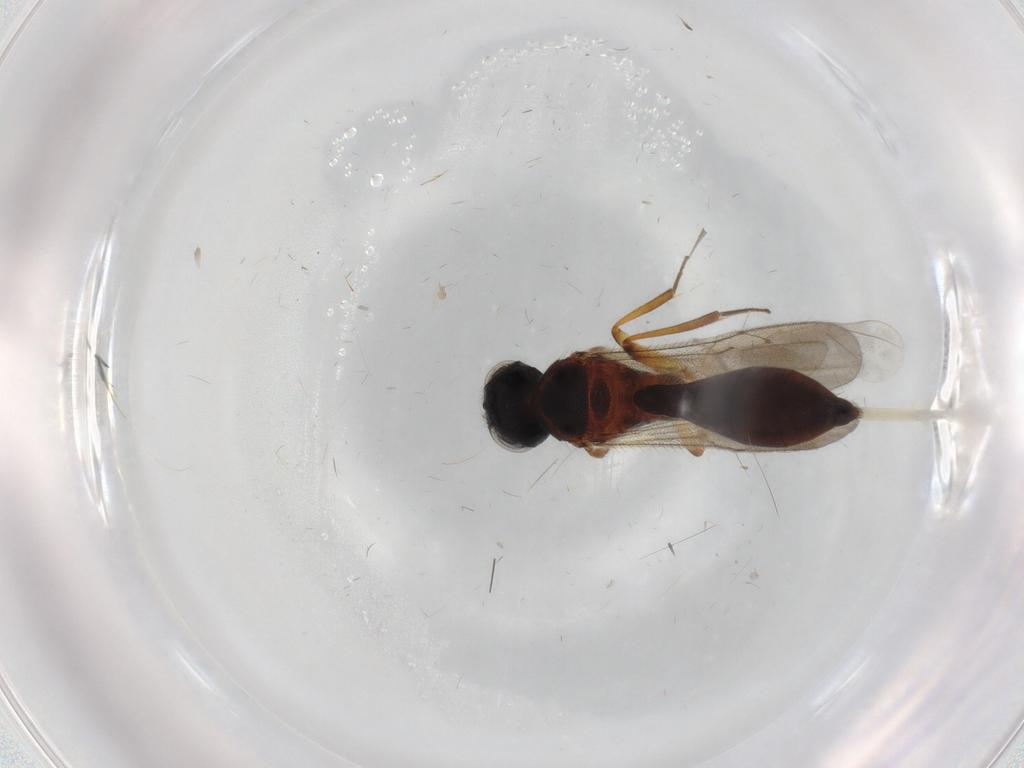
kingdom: Animalia
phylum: Arthropoda
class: Insecta
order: Hymenoptera
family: Scelionidae
